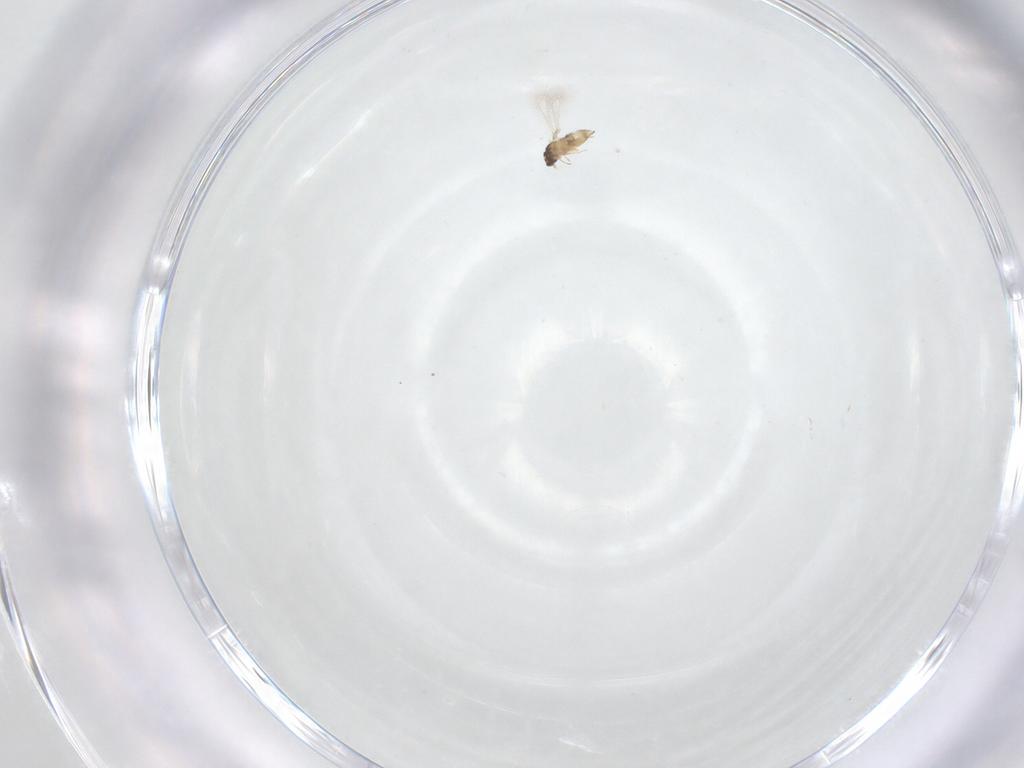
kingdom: Animalia
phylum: Arthropoda
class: Insecta
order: Hymenoptera
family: Mymaridae
